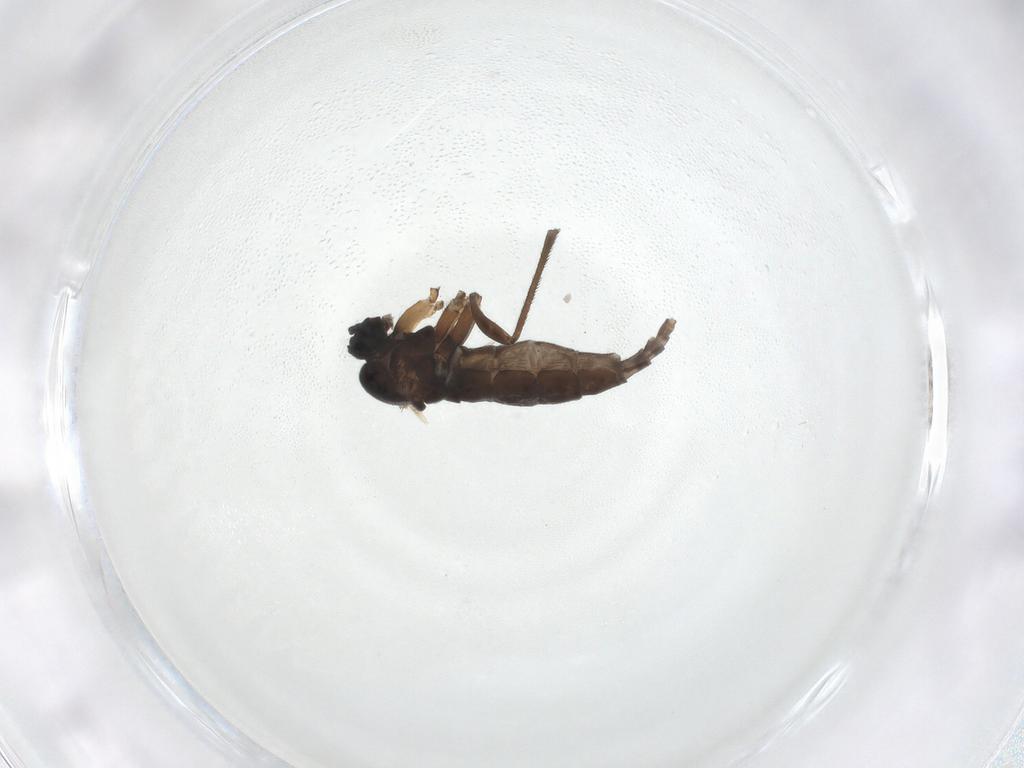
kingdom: Animalia
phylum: Arthropoda
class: Insecta
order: Diptera
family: Sciaridae
